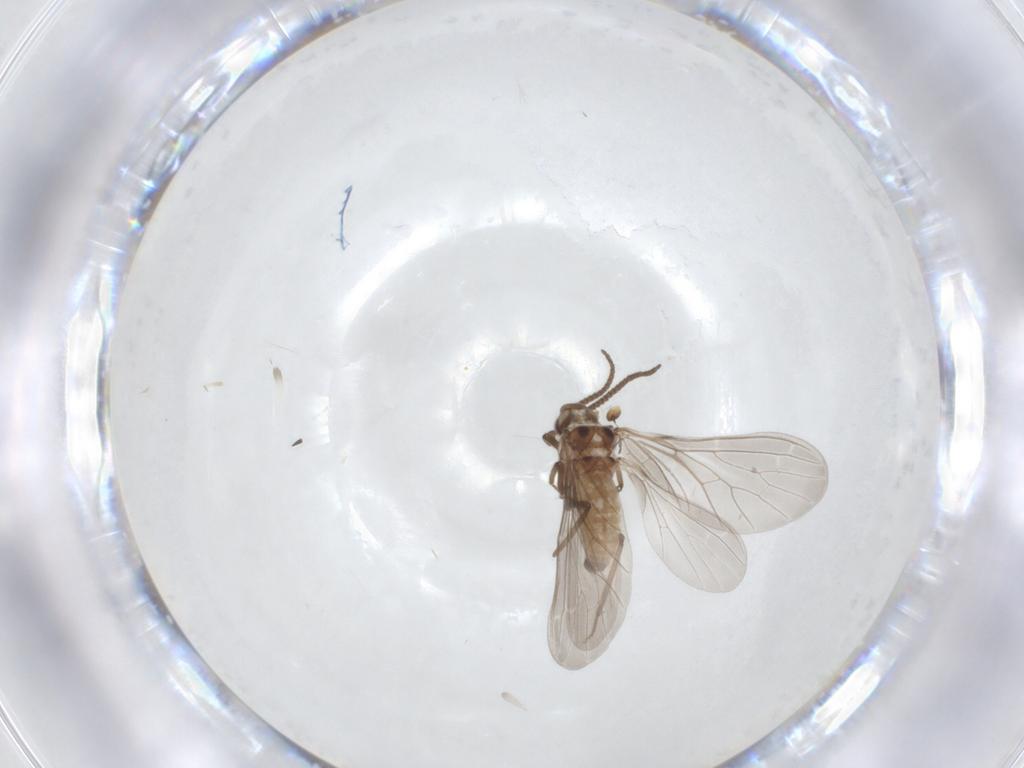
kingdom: Animalia
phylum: Arthropoda
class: Insecta
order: Neuroptera
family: Coniopterygidae
